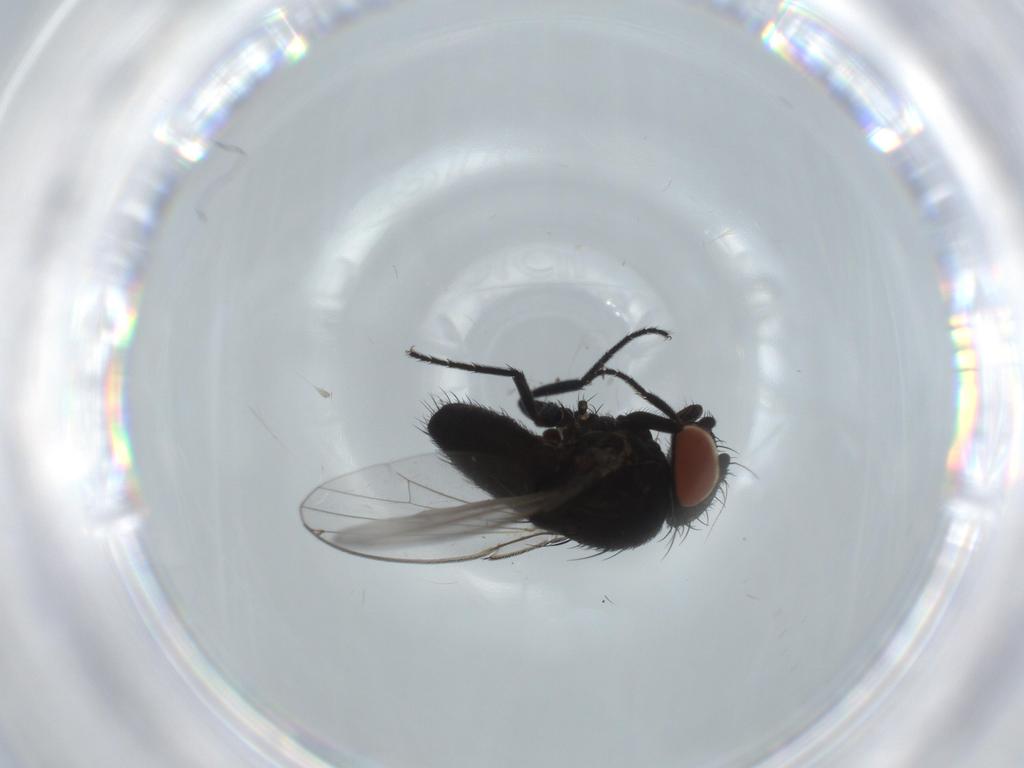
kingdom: Animalia
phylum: Arthropoda
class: Insecta
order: Diptera
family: Milichiidae
